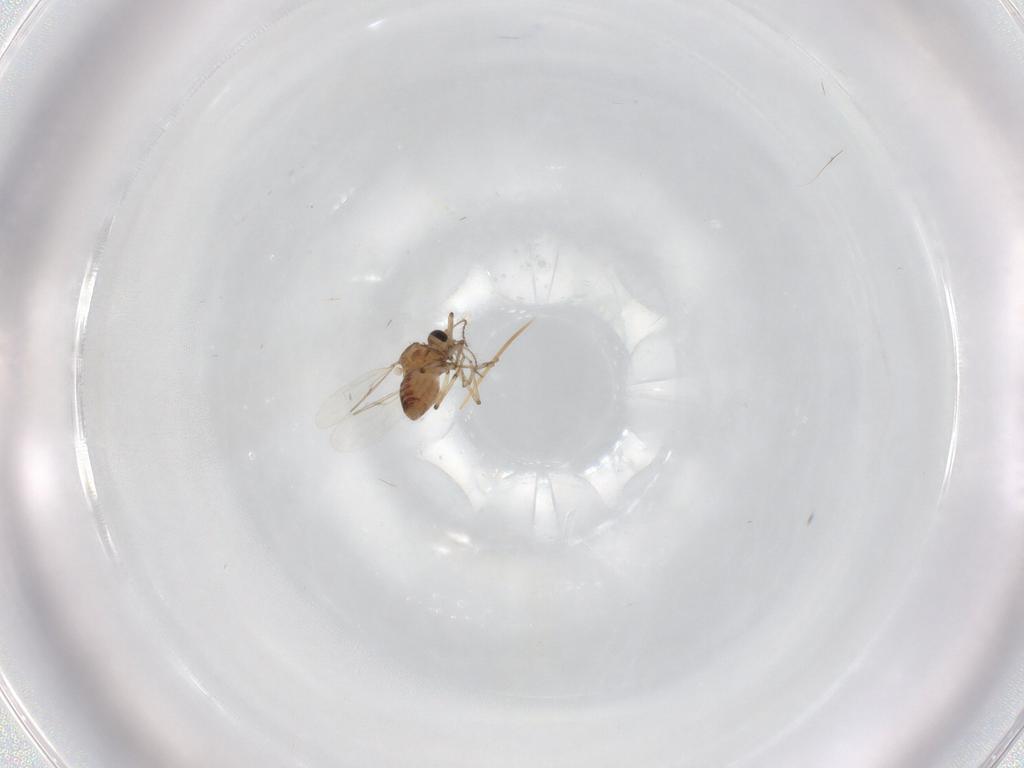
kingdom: Animalia
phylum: Arthropoda
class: Insecta
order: Diptera
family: Ceratopogonidae
